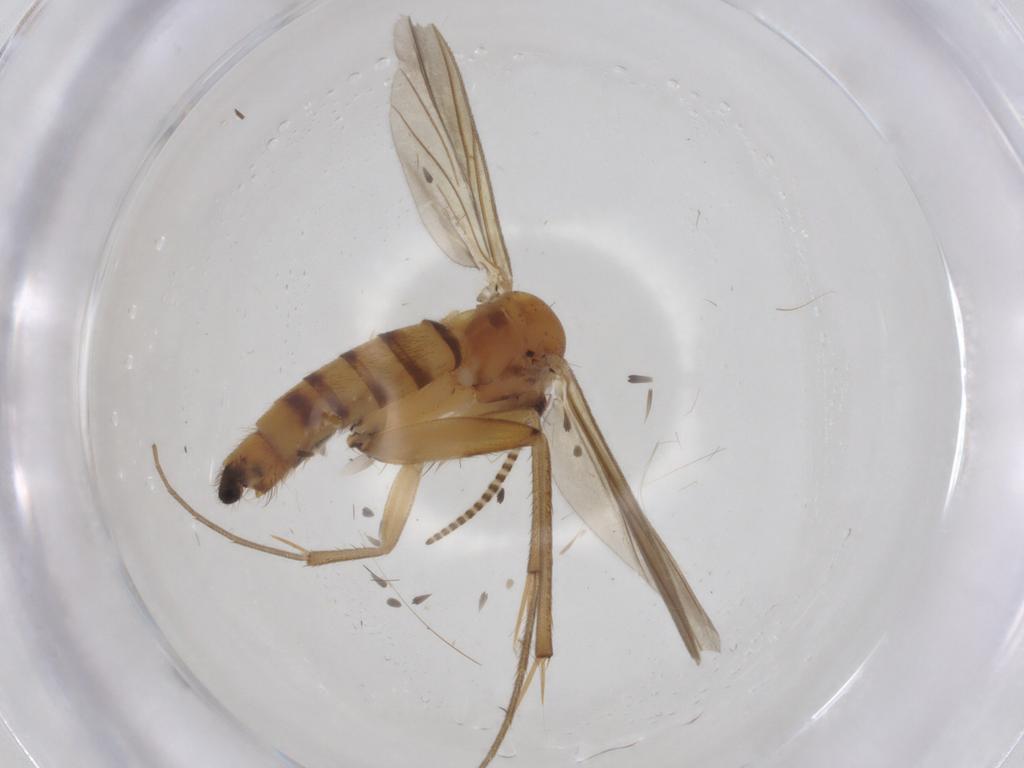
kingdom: Animalia
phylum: Arthropoda
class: Insecta
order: Diptera
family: Mycetophilidae
